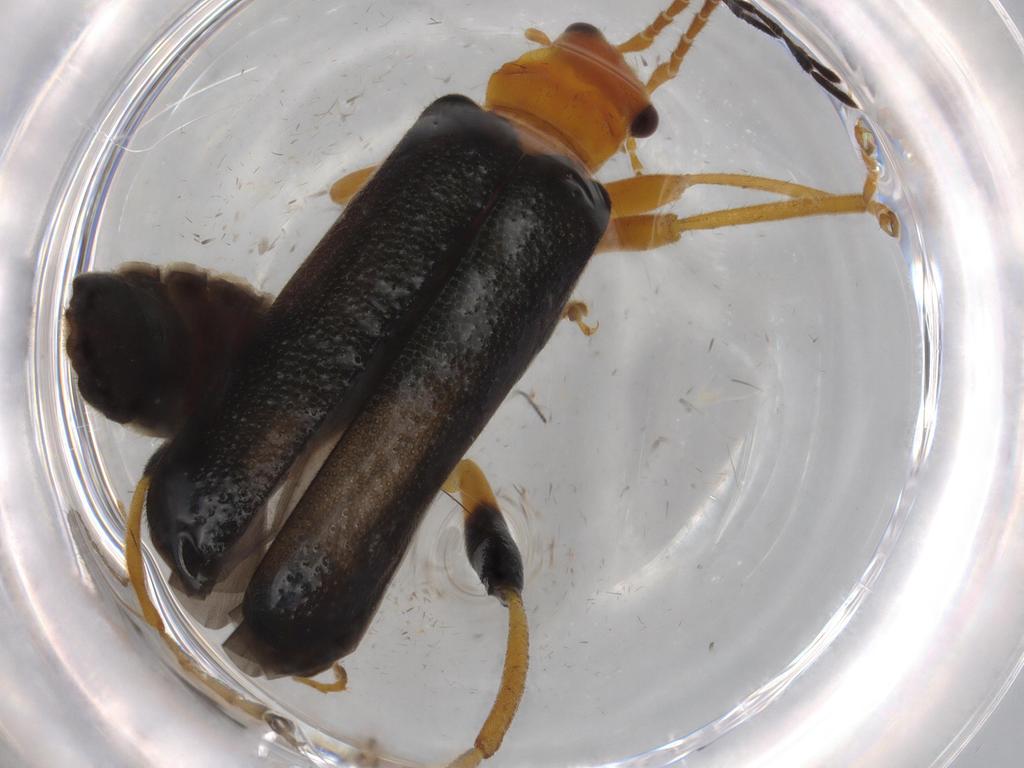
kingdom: Animalia
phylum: Arthropoda
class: Insecta
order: Coleoptera
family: Cantharidae
